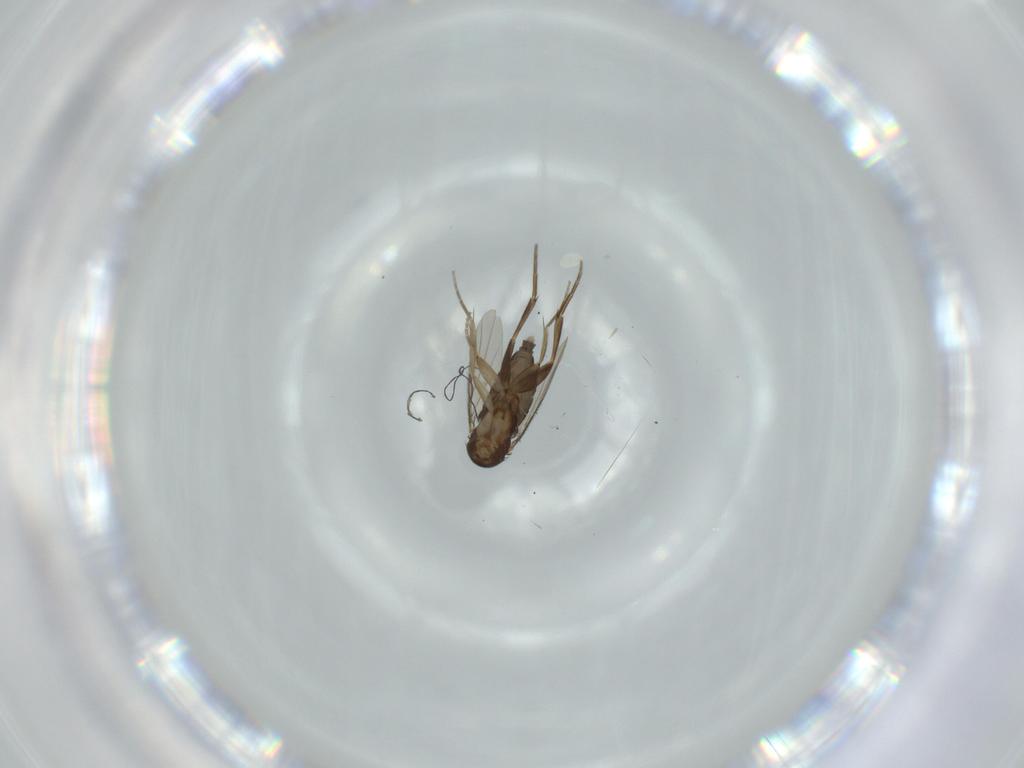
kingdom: Animalia
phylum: Arthropoda
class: Insecta
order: Diptera
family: Phoridae
